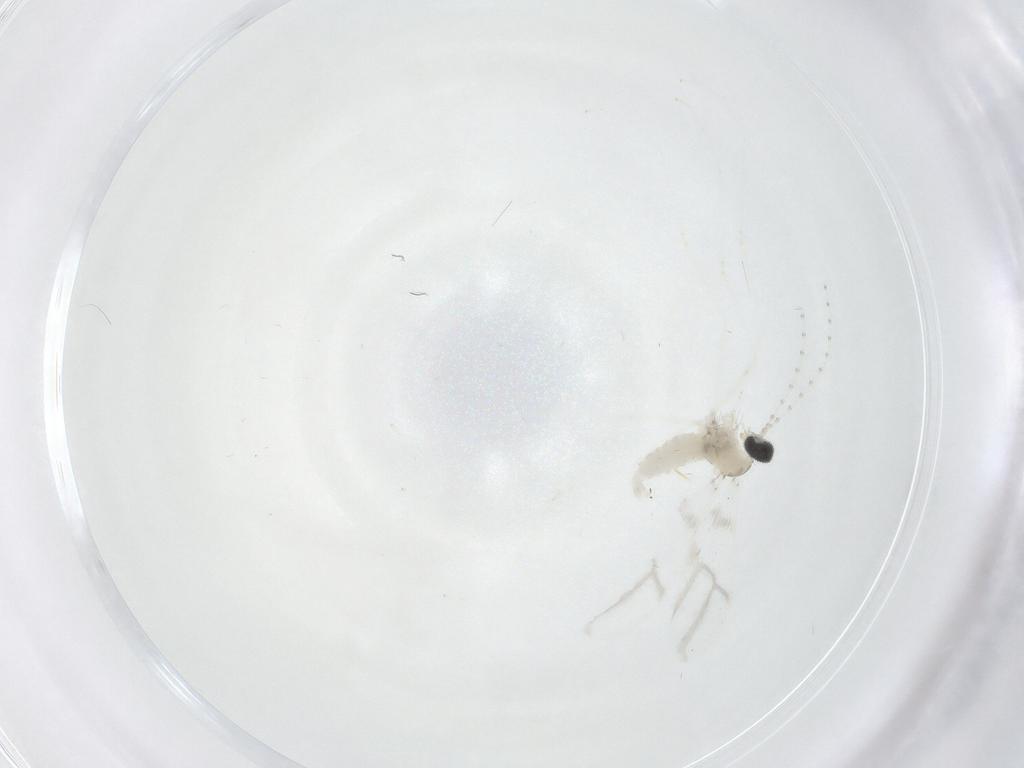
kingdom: Animalia
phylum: Arthropoda
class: Insecta
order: Diptera
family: Cecidomyiidae
